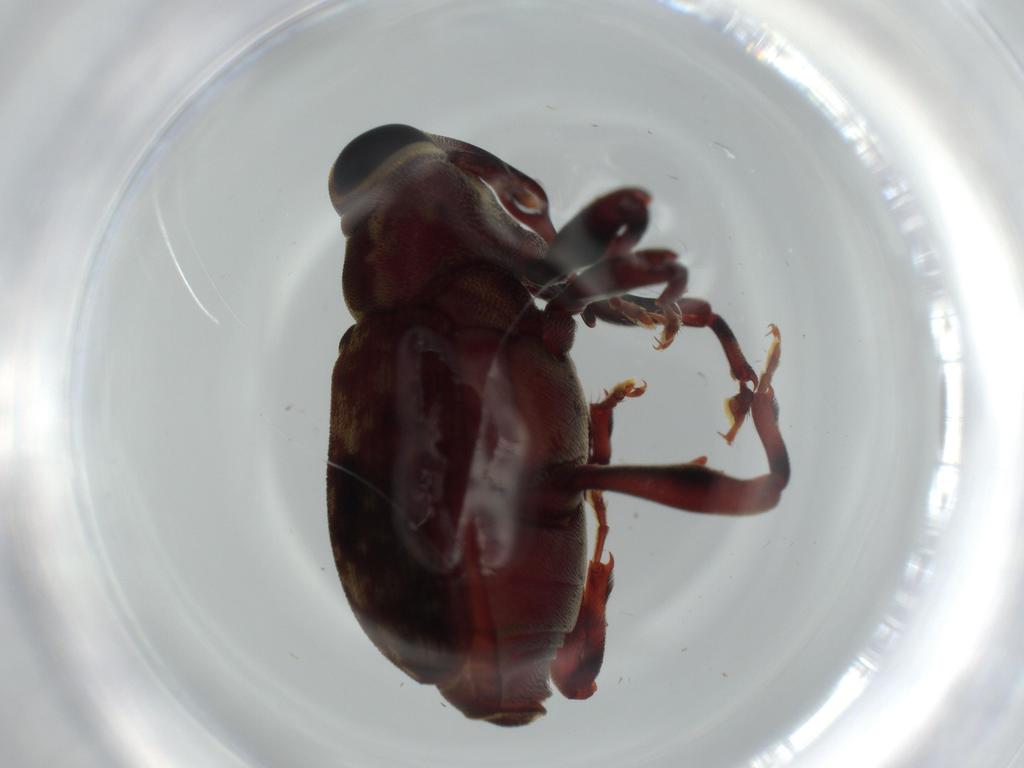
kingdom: Animalia
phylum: Arthropoda
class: Insecta
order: Coleoptera
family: Curculionidae
